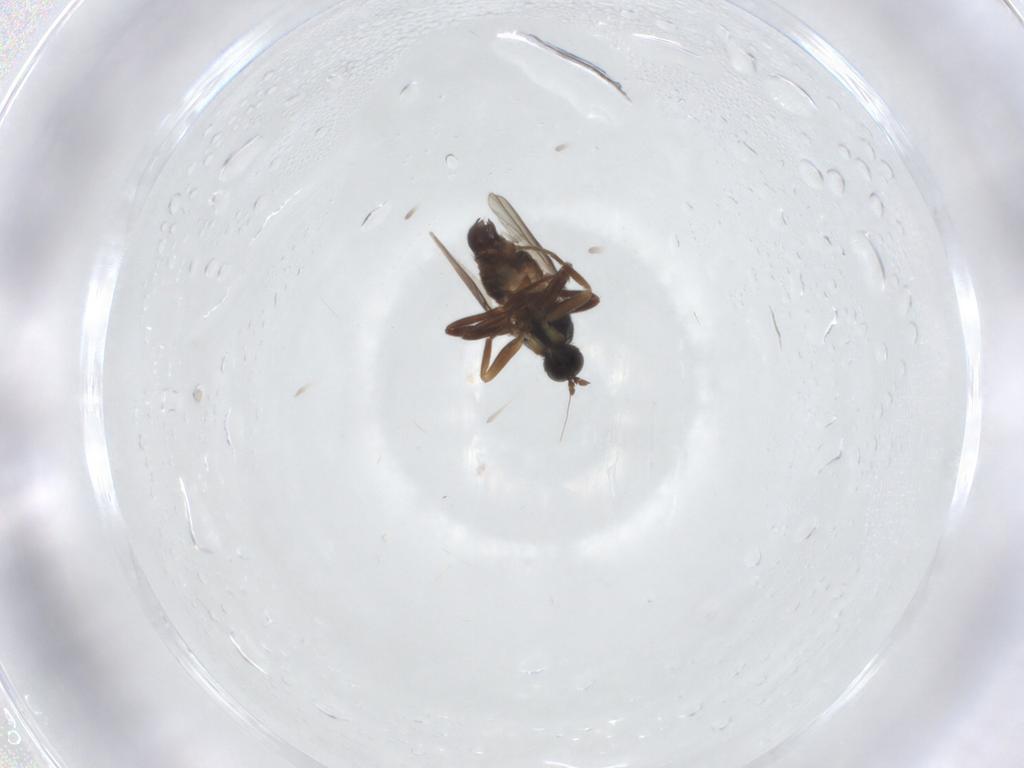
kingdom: Animalia
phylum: Arthropoda
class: Insecta
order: Diptera
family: Hybotidae
